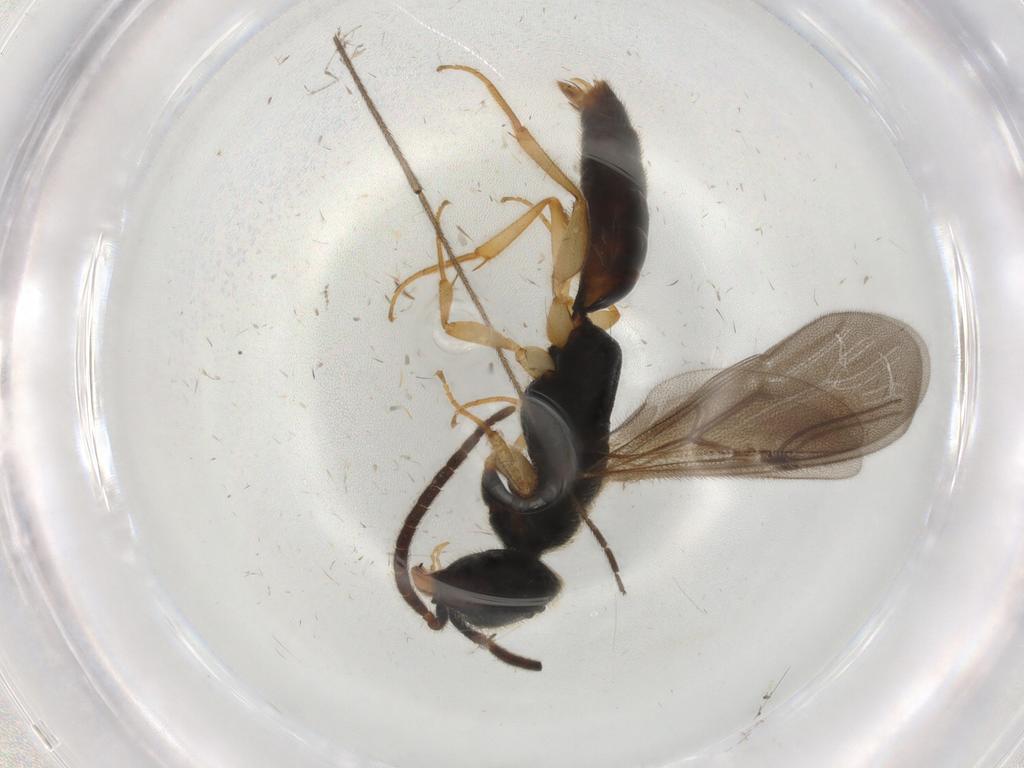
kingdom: Animalia
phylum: Arthropoda
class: Insecta
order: Hymenoptera
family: Bethylidae
